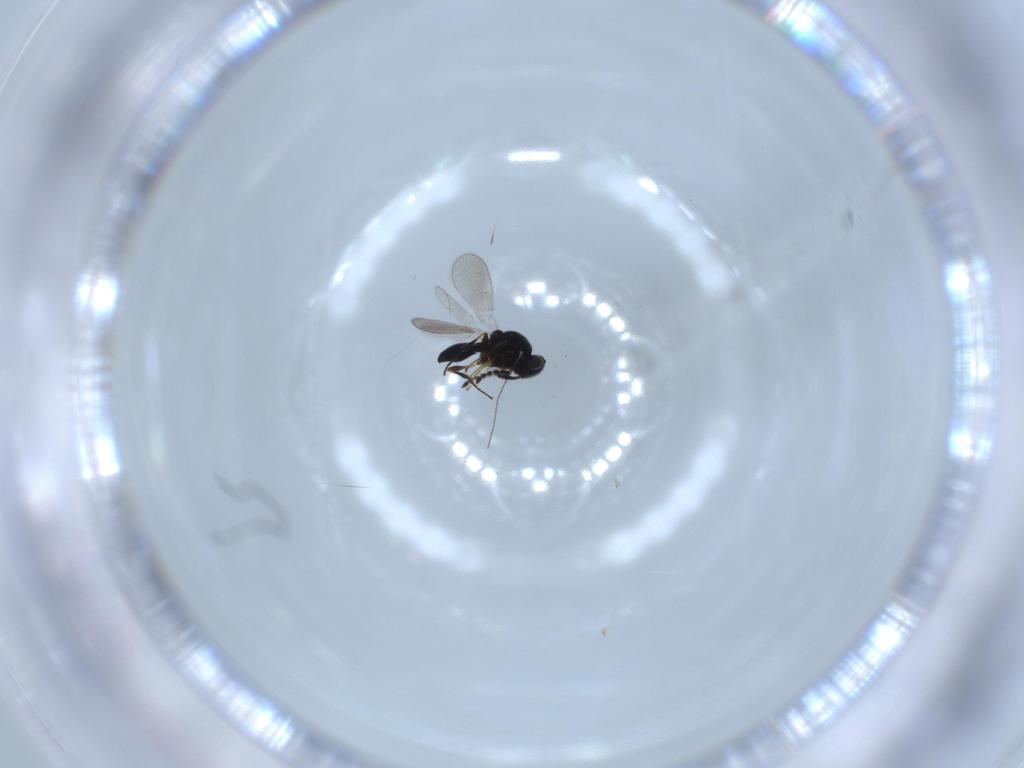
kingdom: Animalia
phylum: Arthropoda
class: Insecta
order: Hymenoptera
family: Platygastridae
